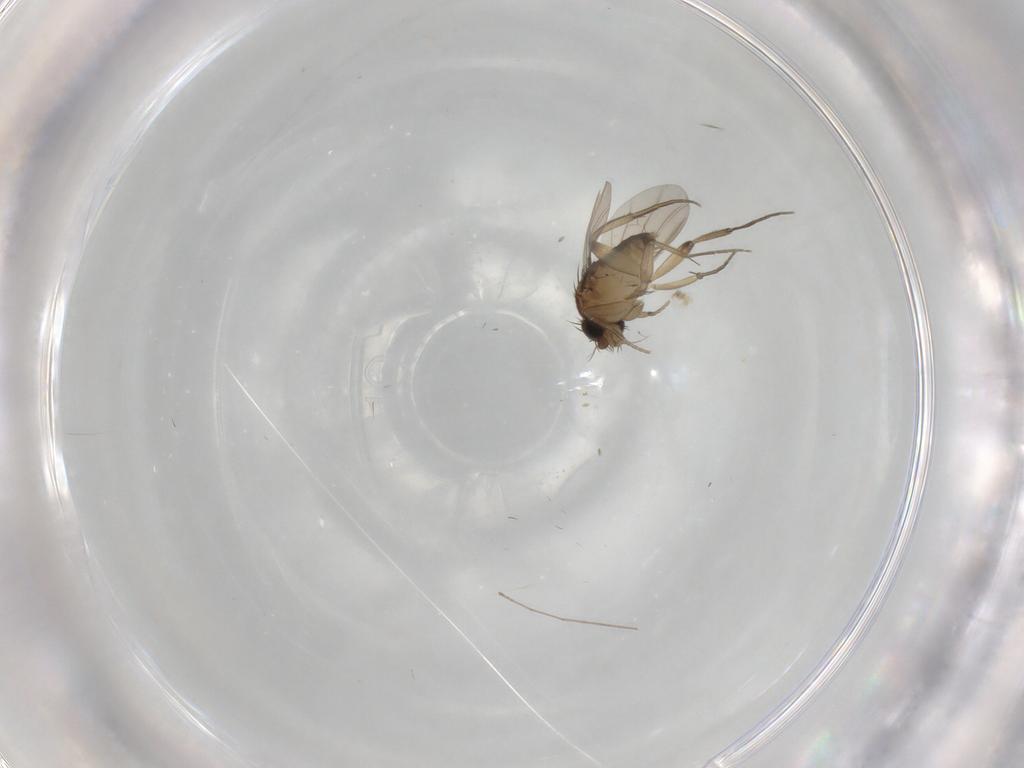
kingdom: Animalia
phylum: Arthropoda
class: Insecta
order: Diptera
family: Phoridae
